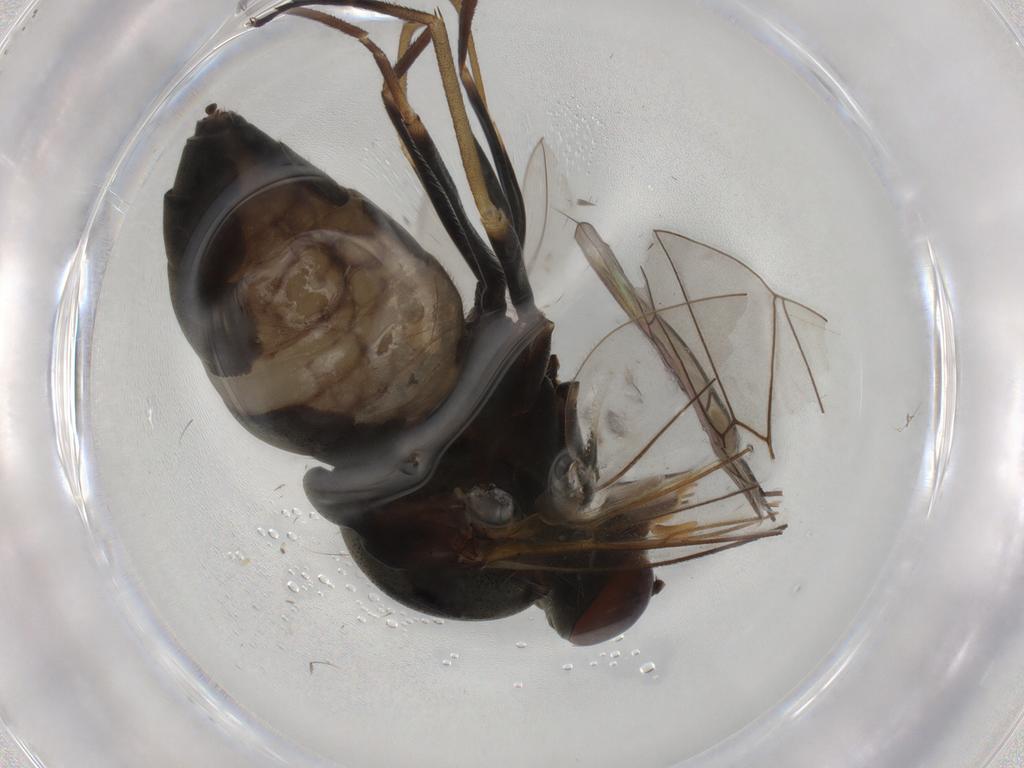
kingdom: Animalia
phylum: Arthropoda
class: Insecta
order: Diptera
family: Rhagionidae
